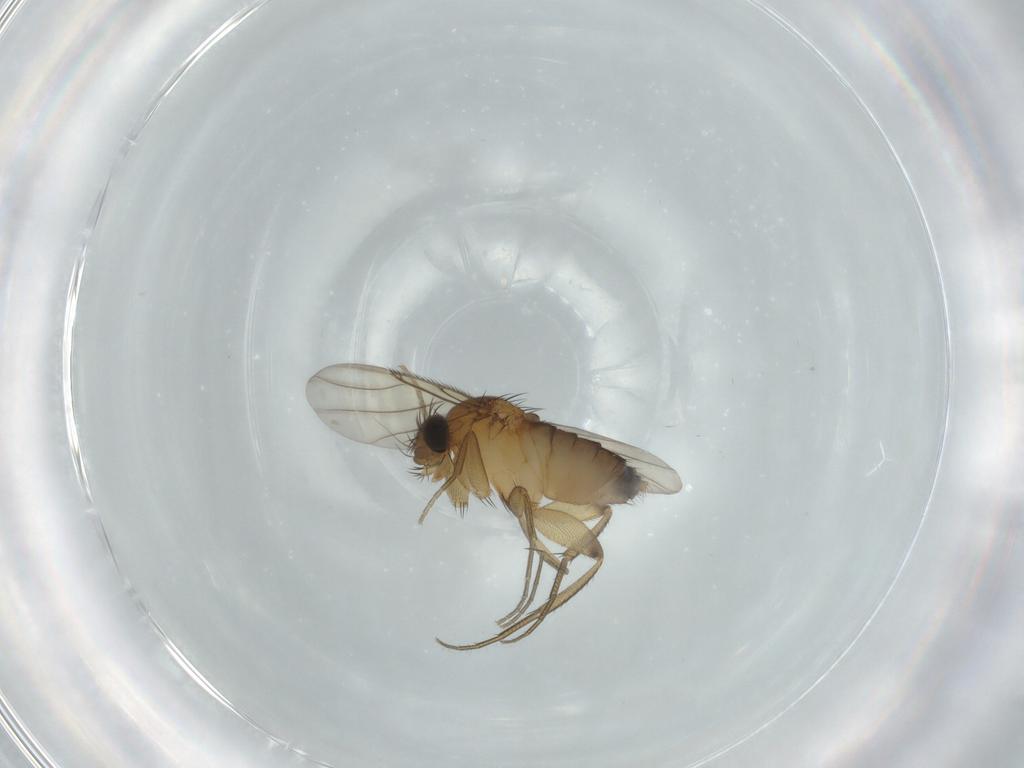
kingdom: Animalia
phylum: Arthropoda
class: Insecta
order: Diptera
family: Phoridae
